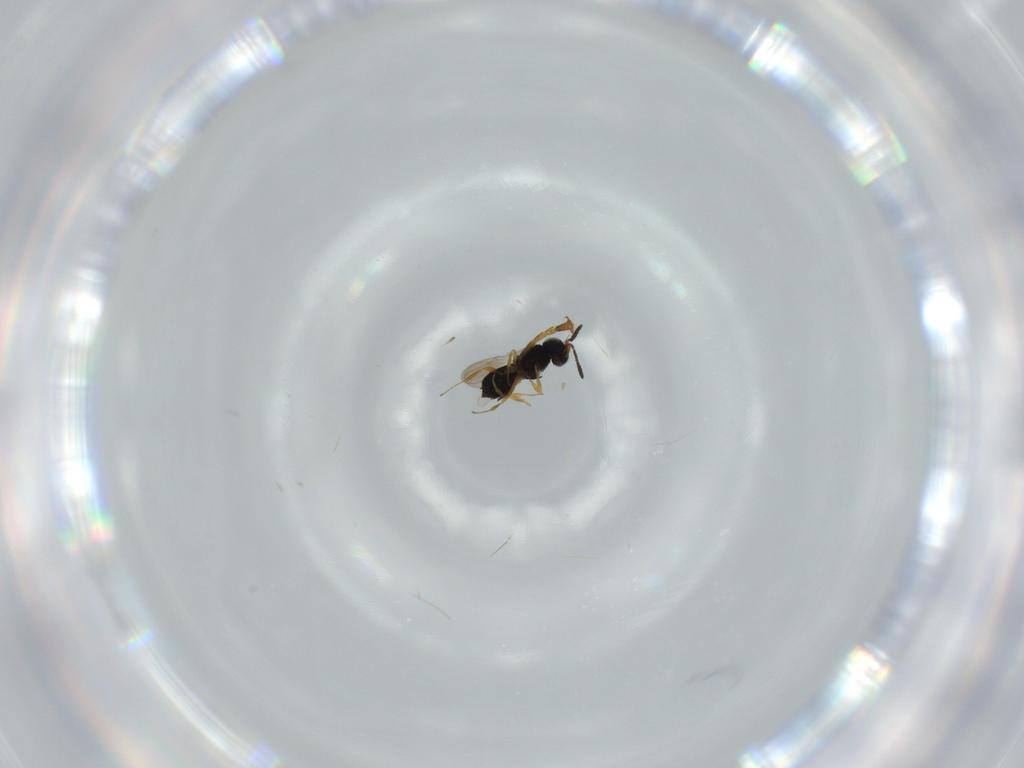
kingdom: Animalia
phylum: Arthropoda
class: Insecta
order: Hymenoptera
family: Scelionidae
